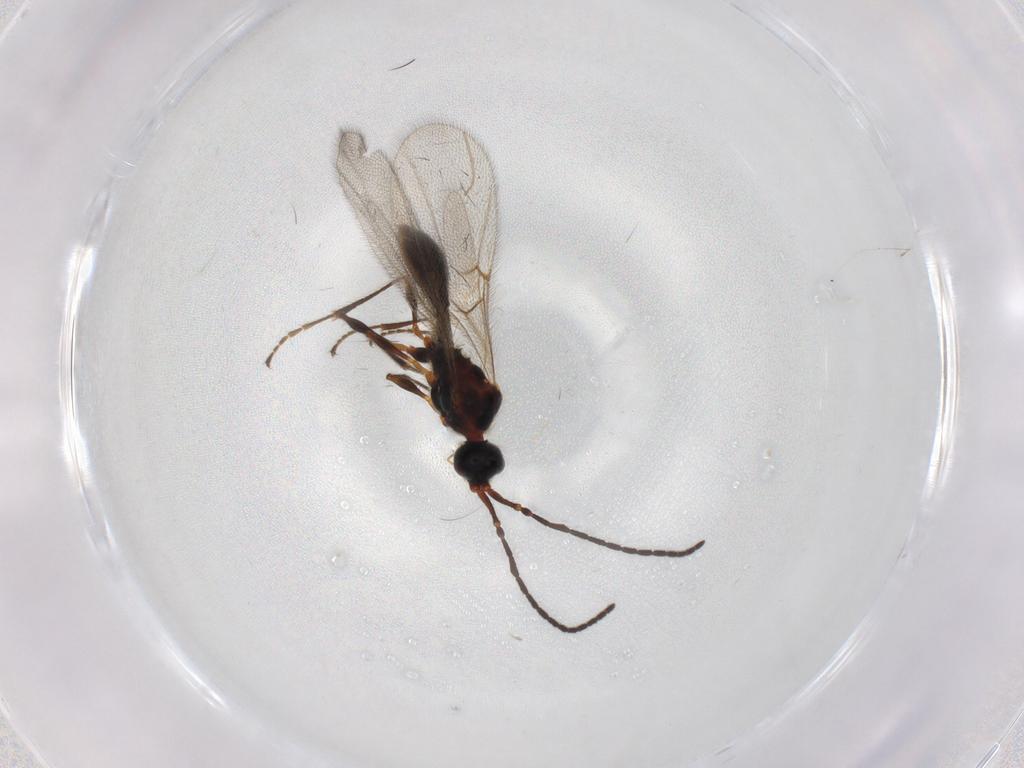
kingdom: Animalia
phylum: Arthropoda
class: Insecta
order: Hymenoptera
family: Diapriidae
